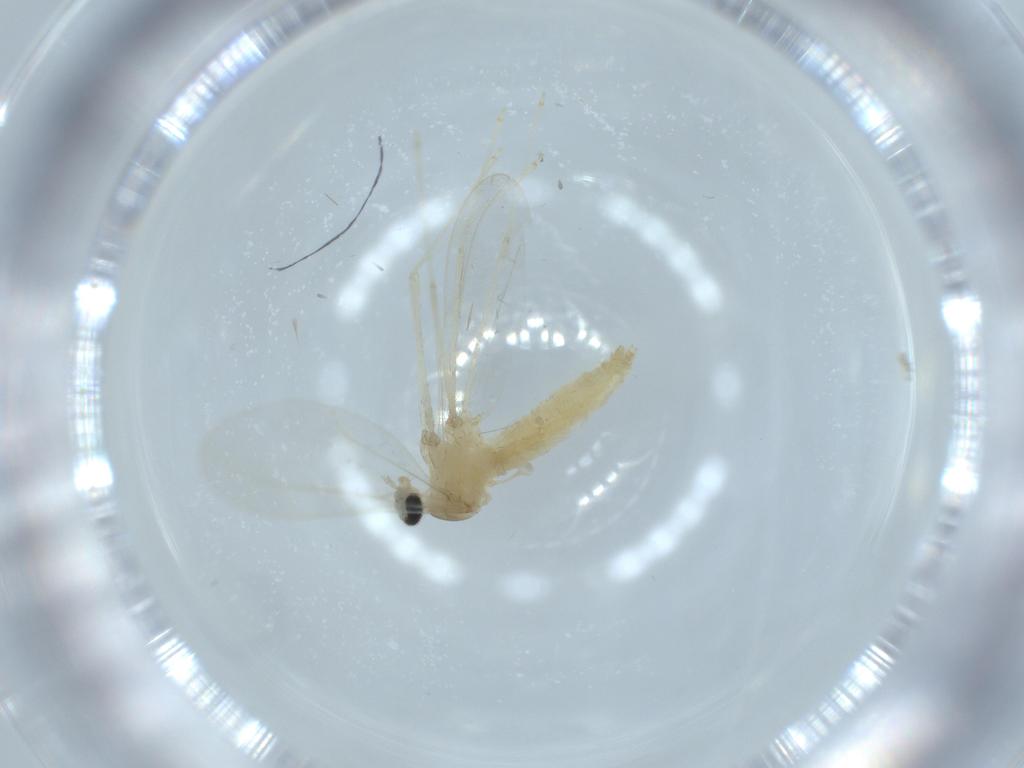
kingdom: Animalia
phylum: Arthropoda
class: Insecta
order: Diptera
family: Cecidomyiidae
